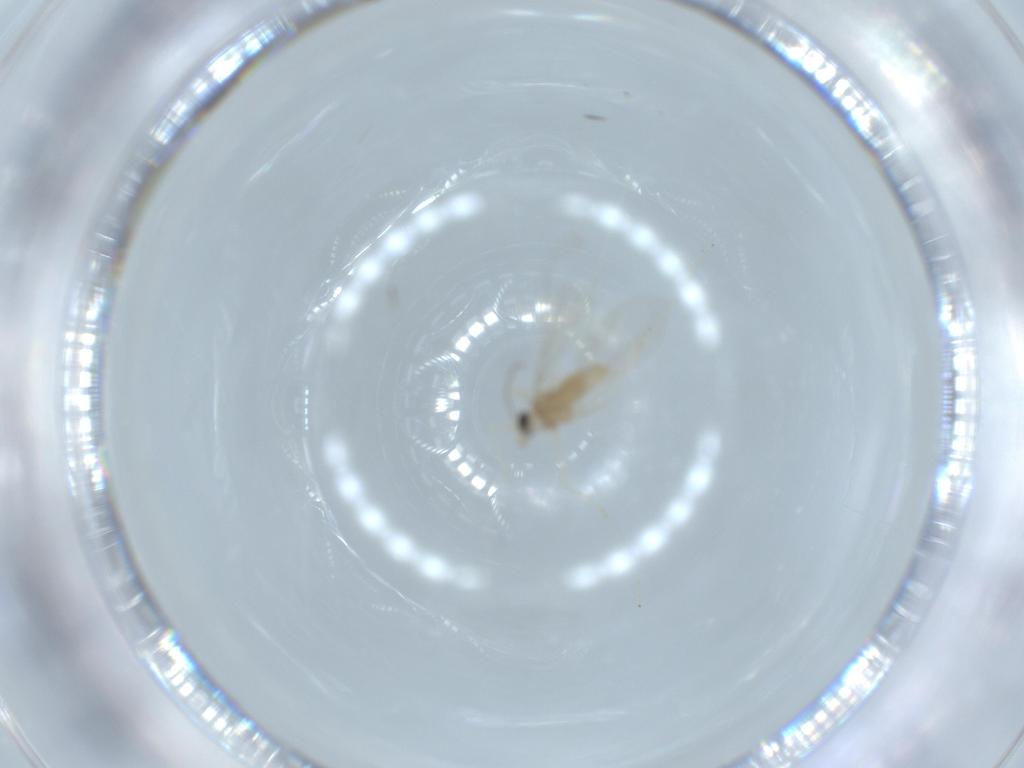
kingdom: Animalia
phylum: Arthropoda
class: Insecta
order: Diptera
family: Cecidomyiidae
